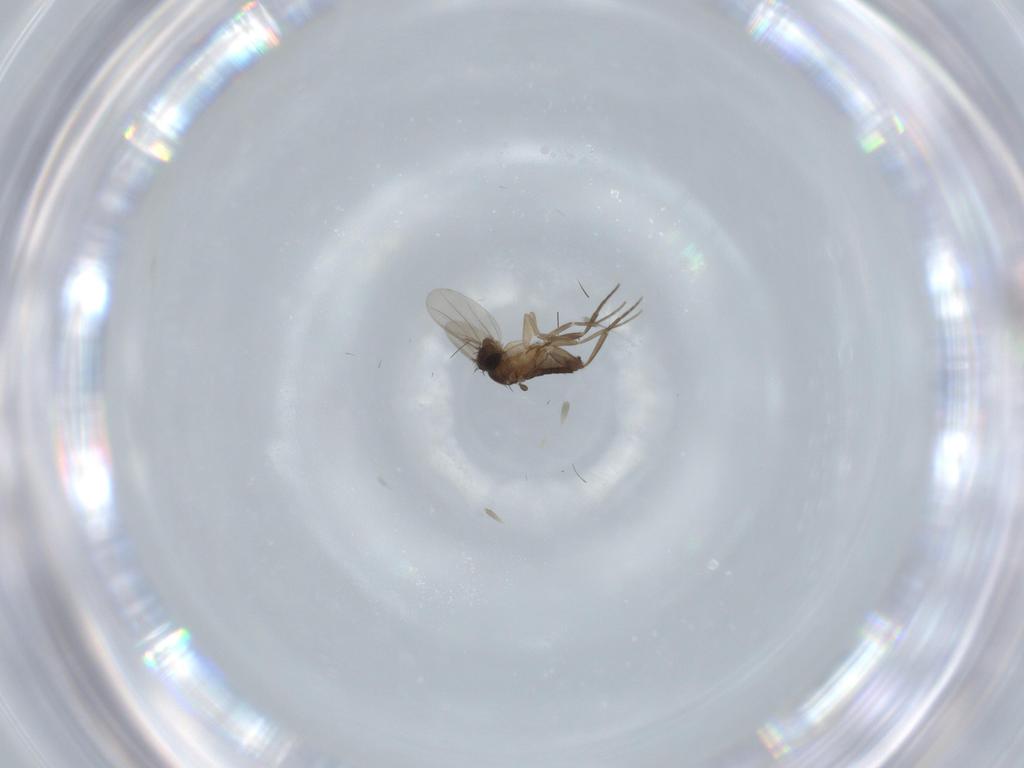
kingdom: Animalia
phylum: Arthropoda
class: Insecta
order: Diptera
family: Phoridae
